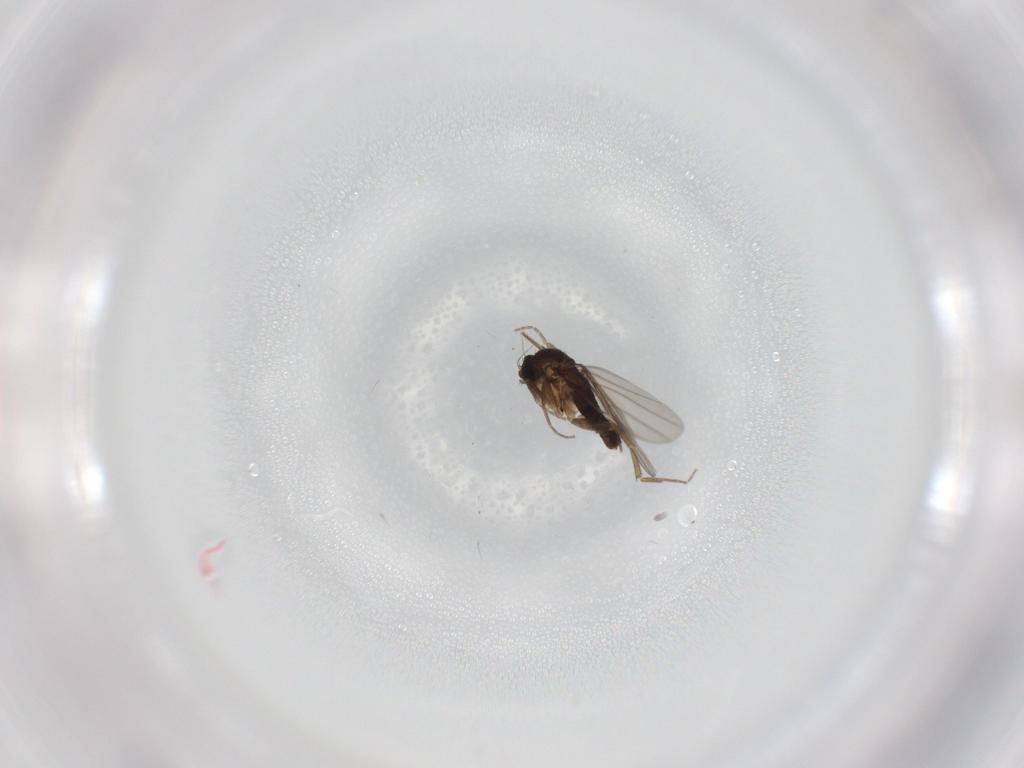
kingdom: Animalia
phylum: Arthropoda
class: Insecta
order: Diptera
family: Phoridae
